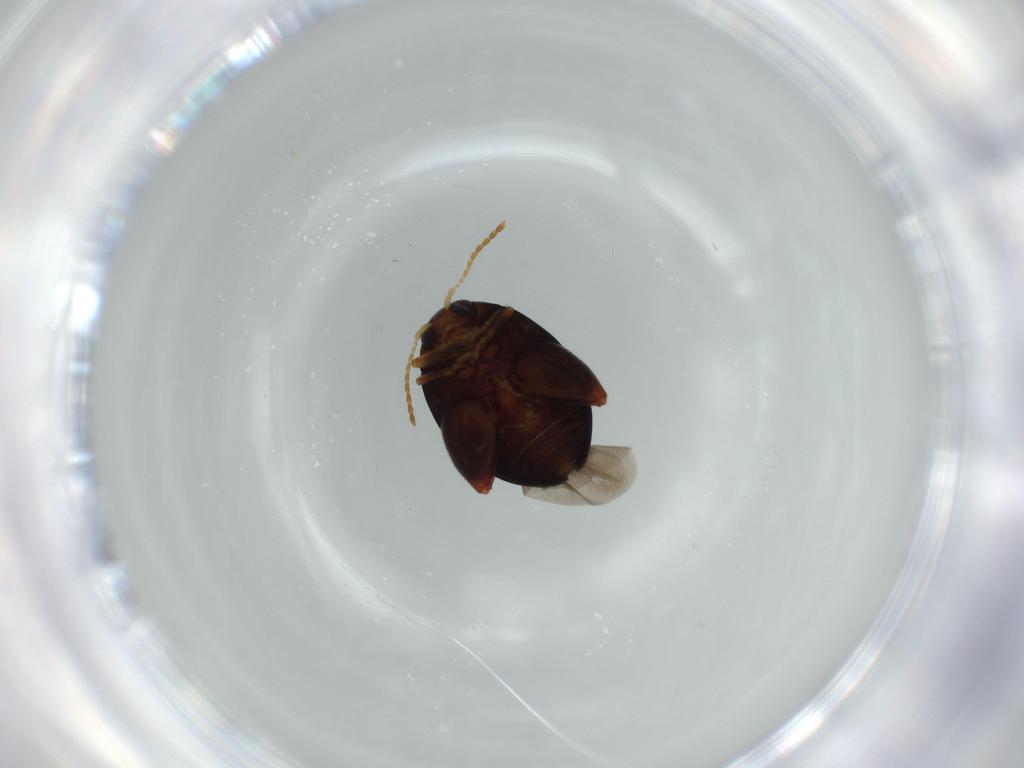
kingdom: Animalia
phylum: Arthropoda
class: Insecta
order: Coleoptera
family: Chrysomelidae
